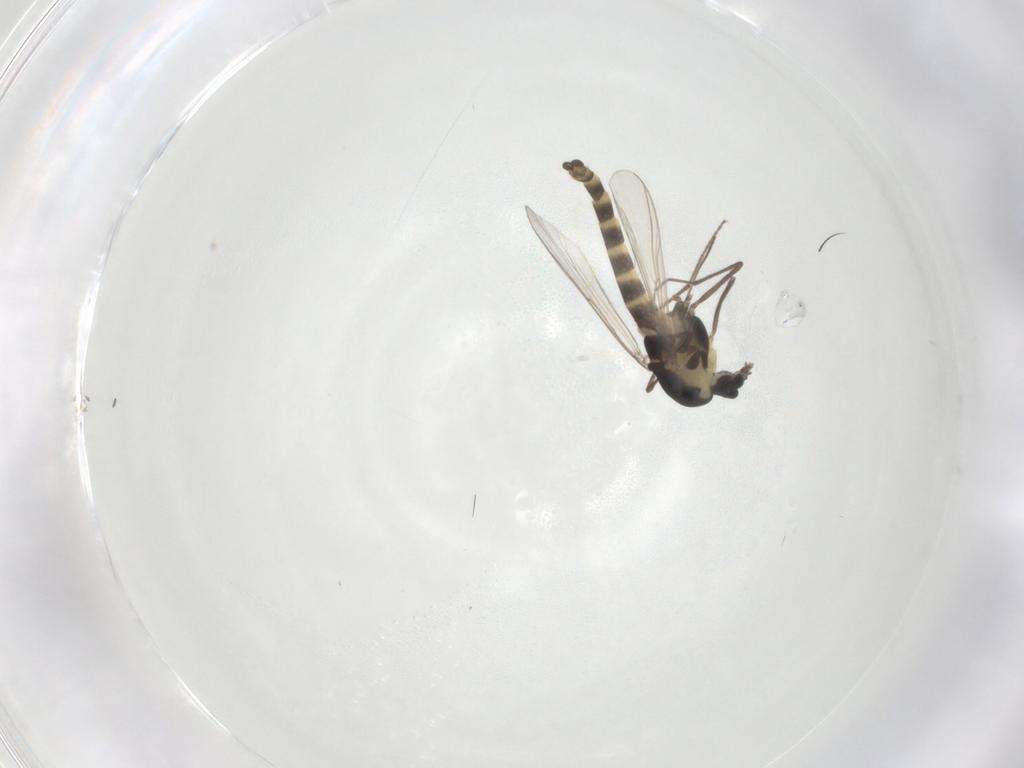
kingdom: Animalia
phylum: Arthropoda
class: Insecta
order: Diptera
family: Chironomidae
